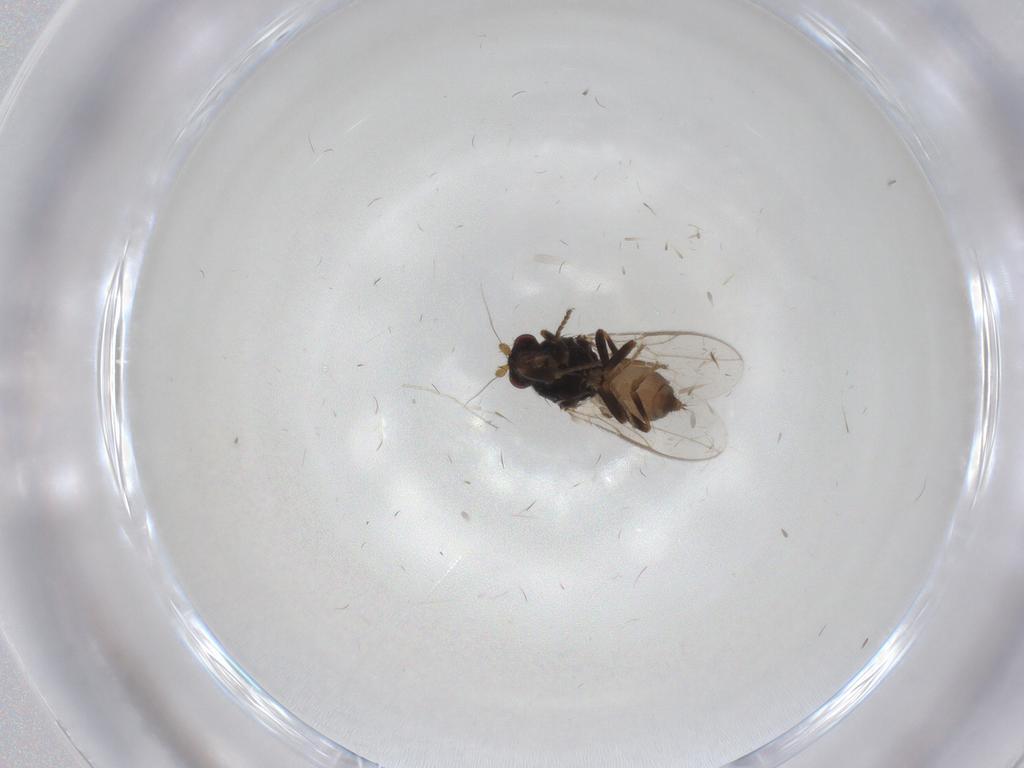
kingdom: Animalia
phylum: Arthropoda
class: Insecta
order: Diptera
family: Sphaeroceridae
